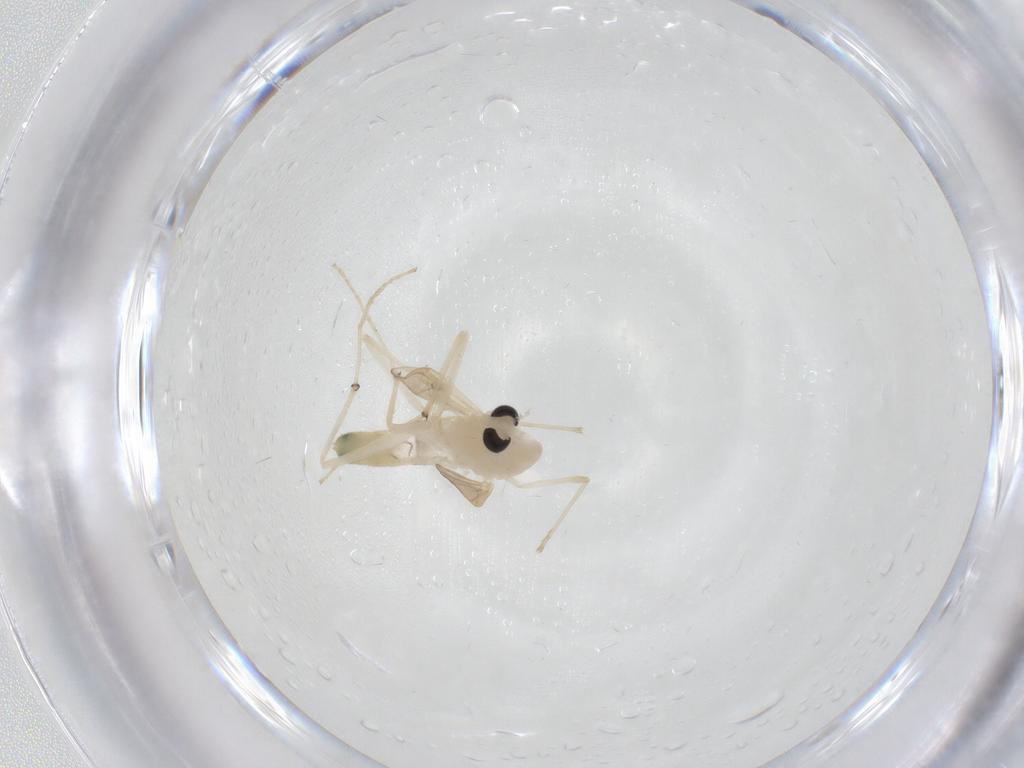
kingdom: Animalia
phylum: Arthropoda
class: Insecta
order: Diptera
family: Chironomidae
